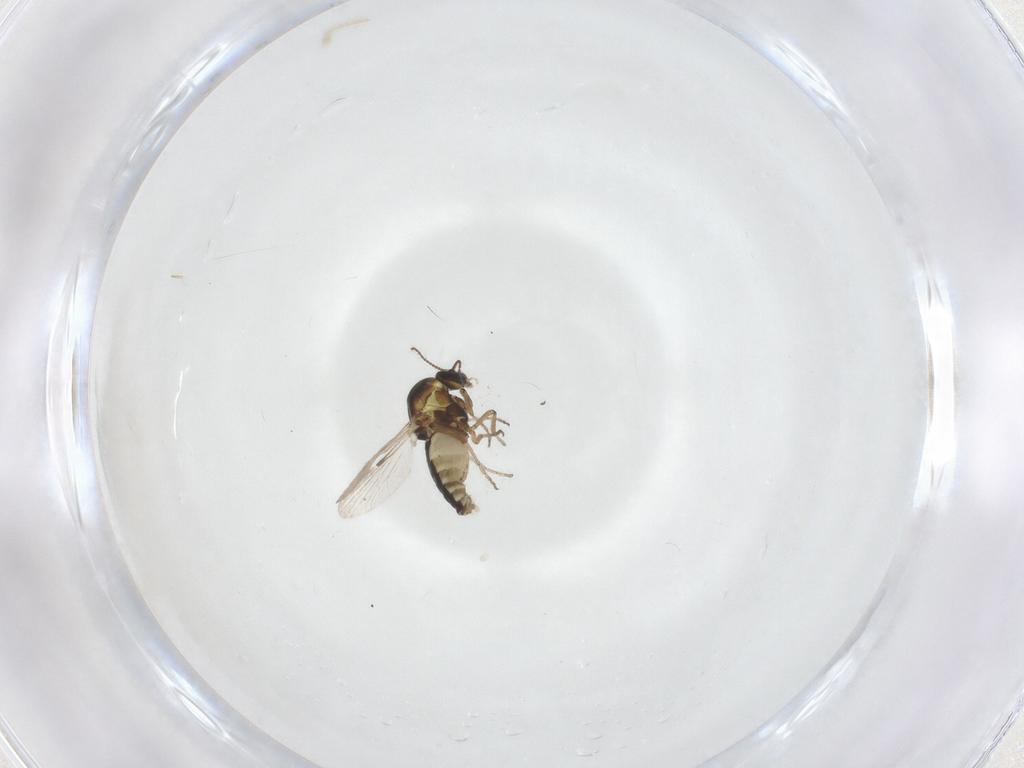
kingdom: Animalia
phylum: Arthropoda
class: Insecta
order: Diptera
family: Ceratopogonidae
